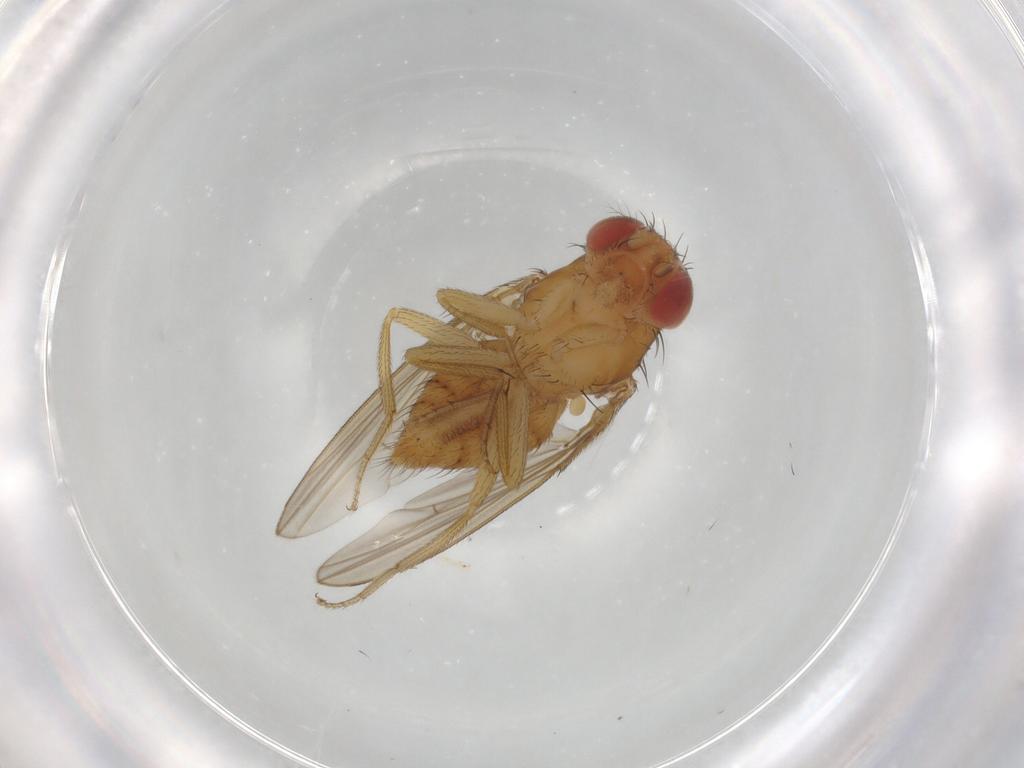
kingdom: Animalia
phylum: Arthropoda
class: Insecta
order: Diptera
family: Drosophilidae
